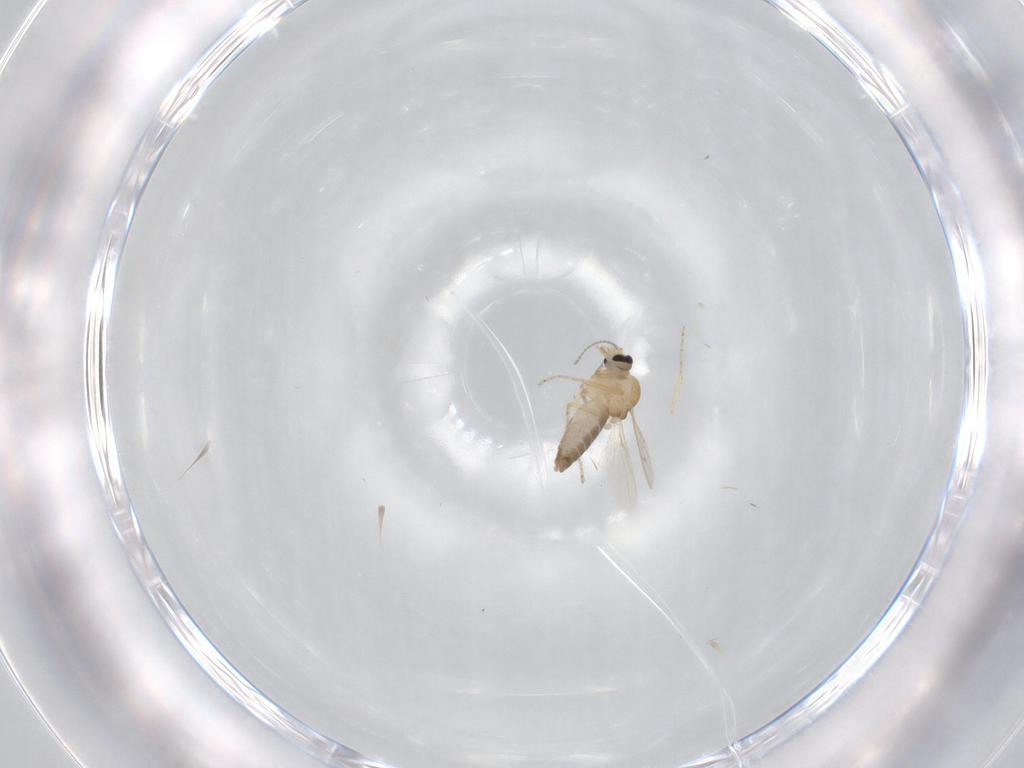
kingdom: Animalia
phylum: Arthropoda
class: Insecta
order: Diptera
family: Ceratopogonidae
